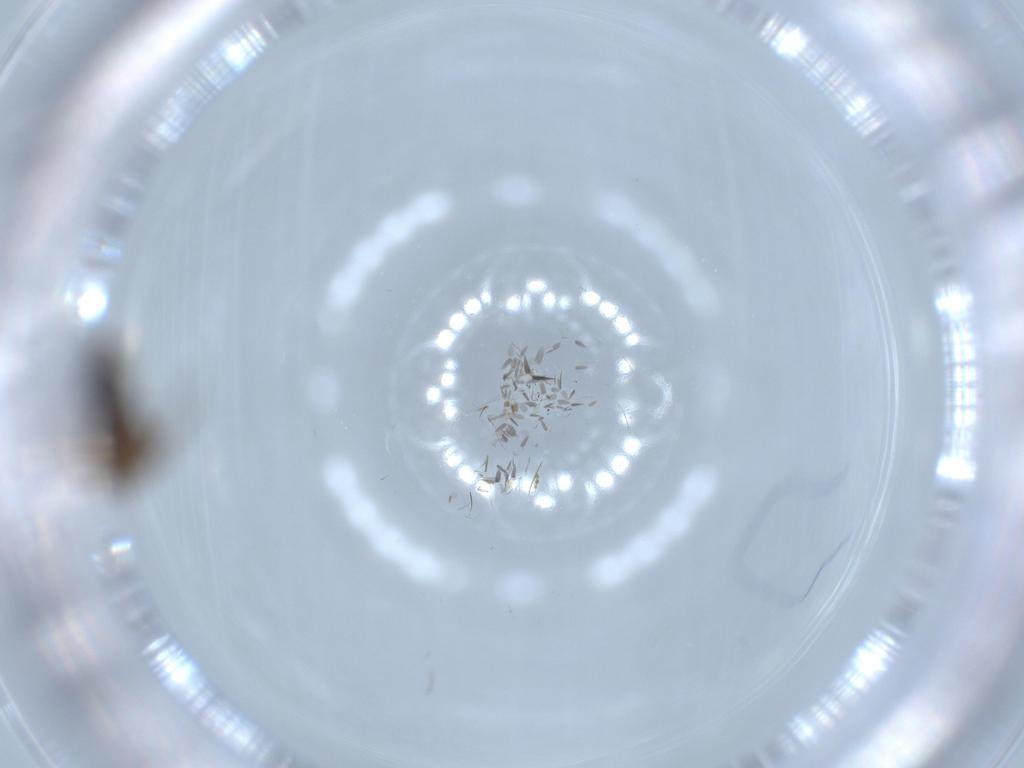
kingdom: Animalia
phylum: Arthropoda
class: Insecta
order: Diptera
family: Mycetophilidae
